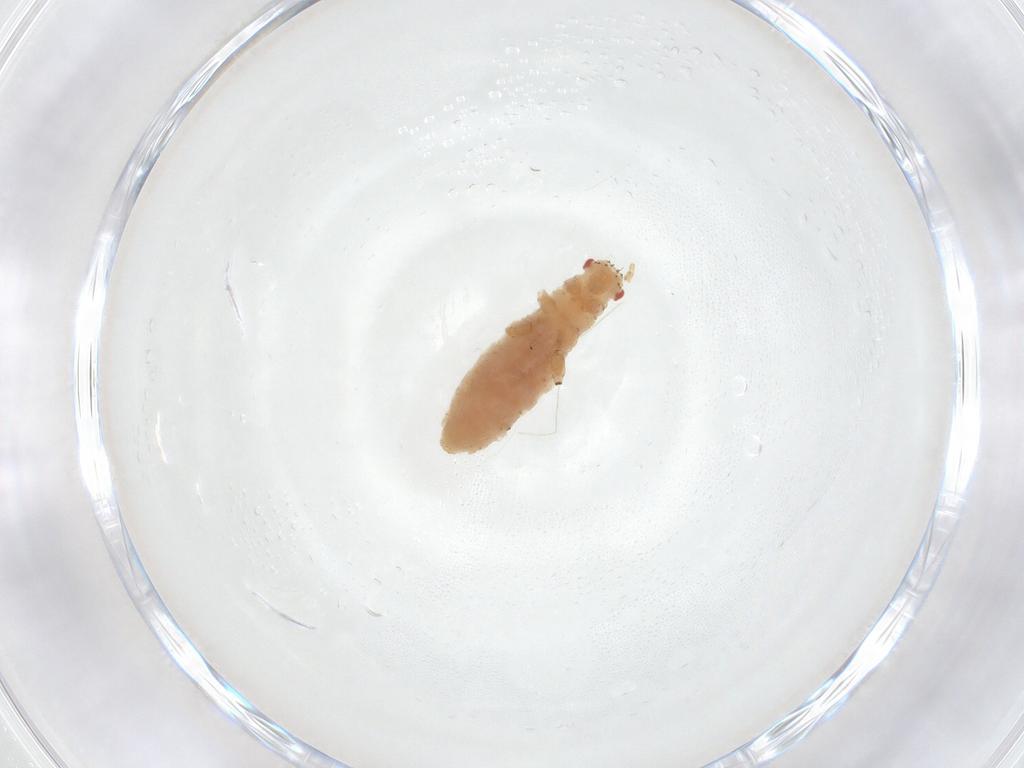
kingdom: Animalia
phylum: Arthropoda
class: Insecta
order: Hemiptera
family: Aphididae
